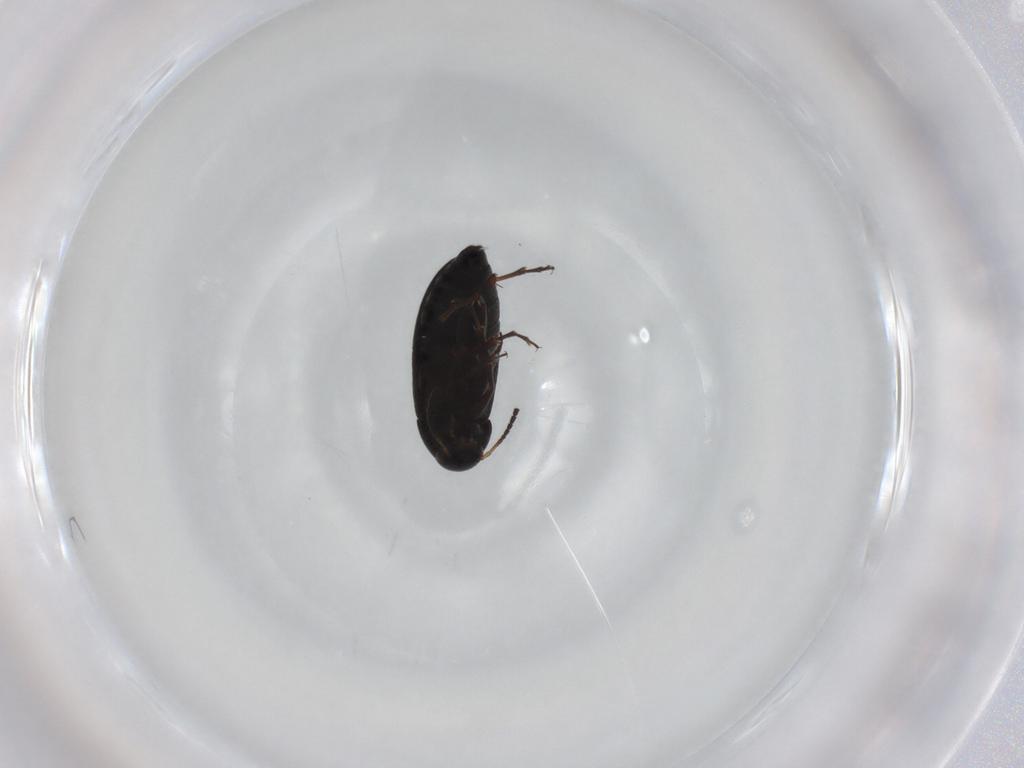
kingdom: Animalia
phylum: Arthropoda
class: Insecta
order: Coleoptera
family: Scraptiidae
